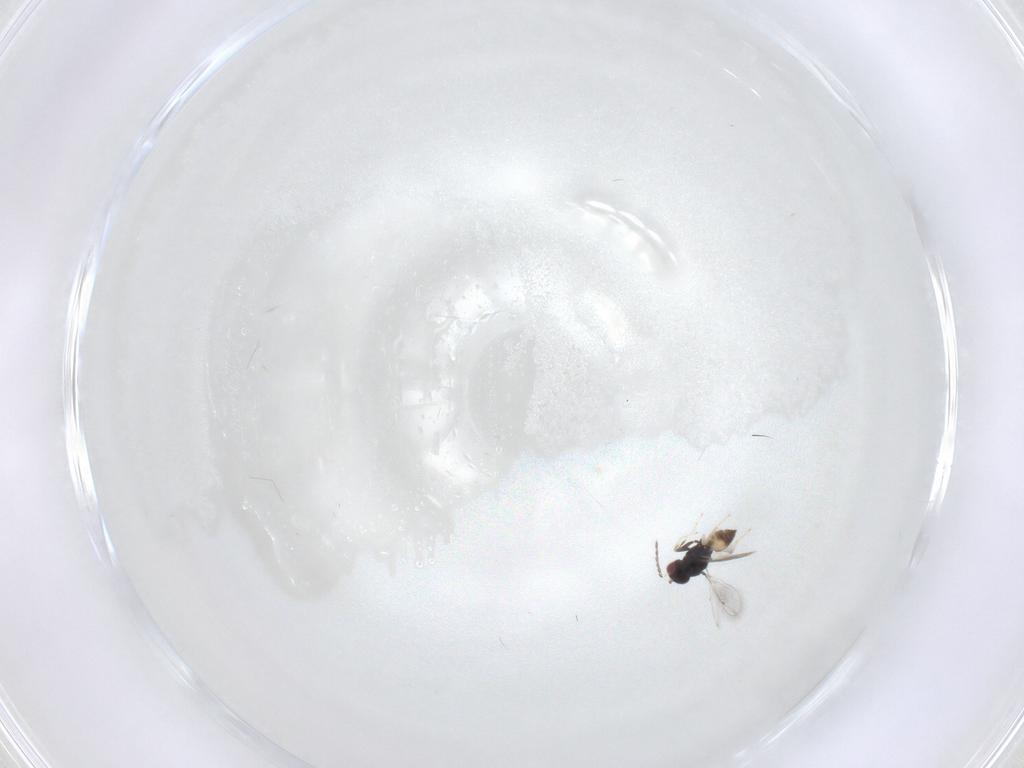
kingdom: Animalia
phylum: Arthropoda
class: Insecta
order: Hymenoptera
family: Eulophidae
